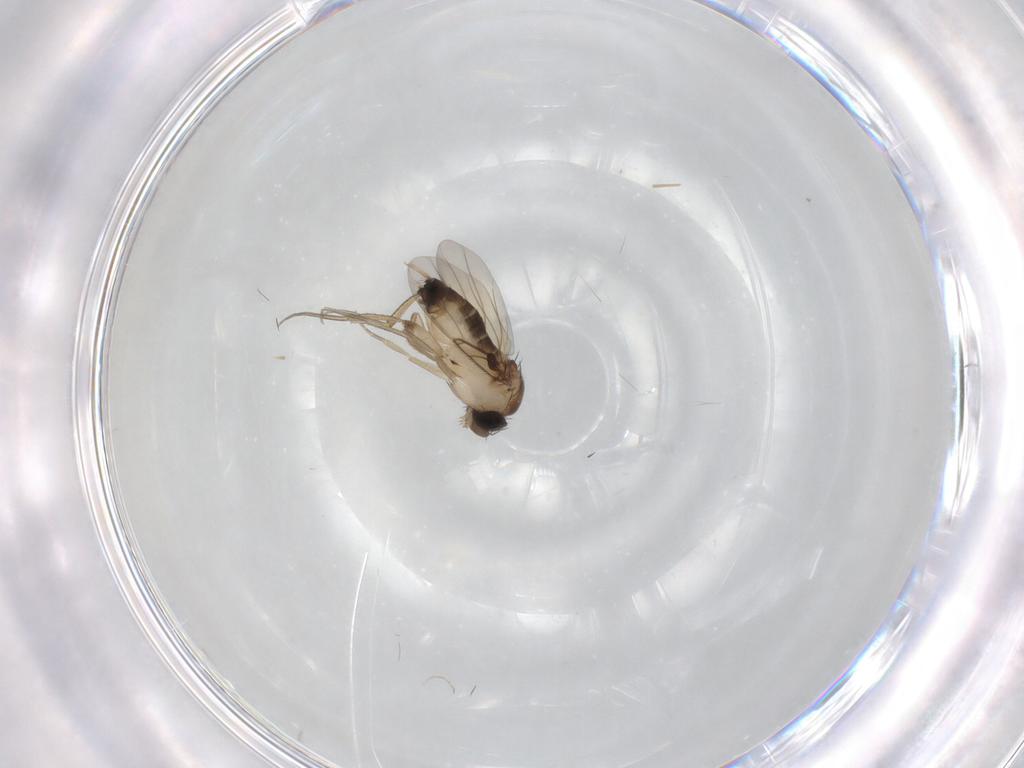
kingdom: Animalia
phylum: Arthropoda
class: Insecta
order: Diptera
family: Phoridae
